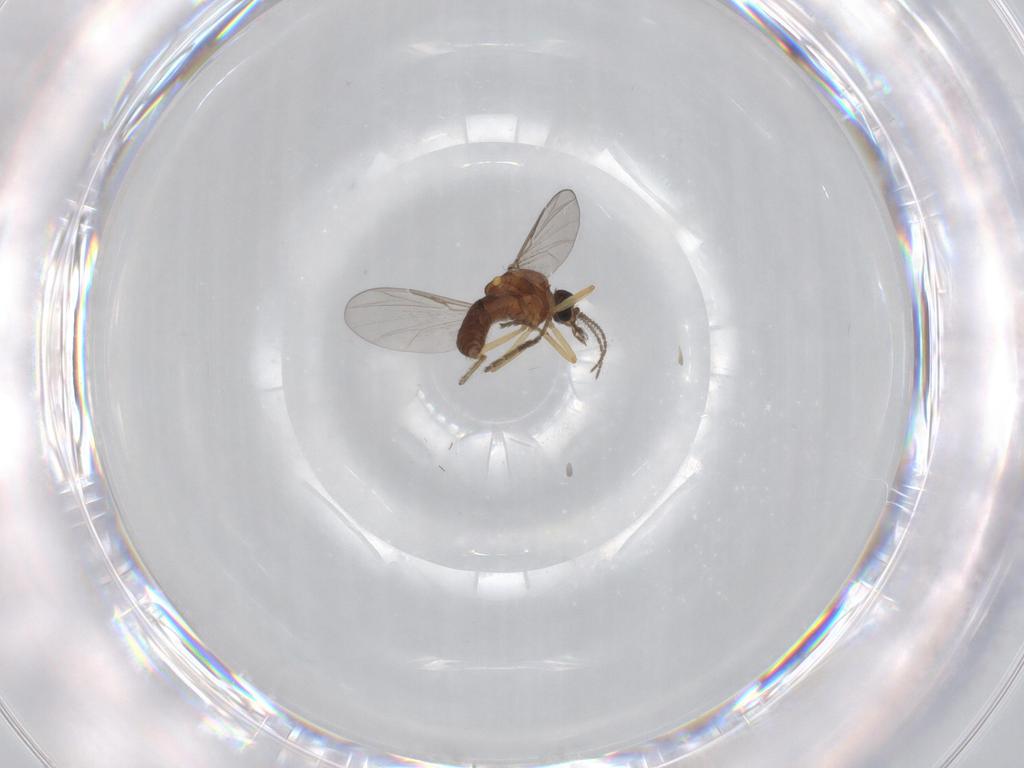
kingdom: Animalia
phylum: Arthropoda
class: Insecta
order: Diptera
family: Ceratopogonidae
